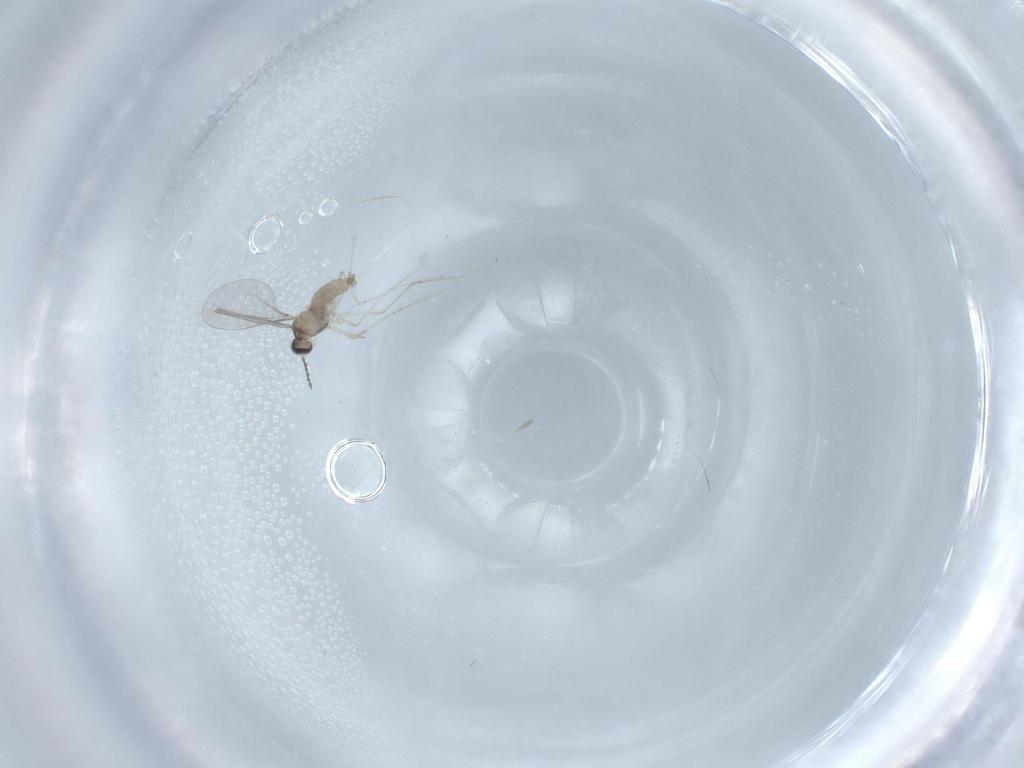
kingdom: Animalia
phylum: Arthropoda
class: Insecta
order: Diptera
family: Cecidomyiidae
